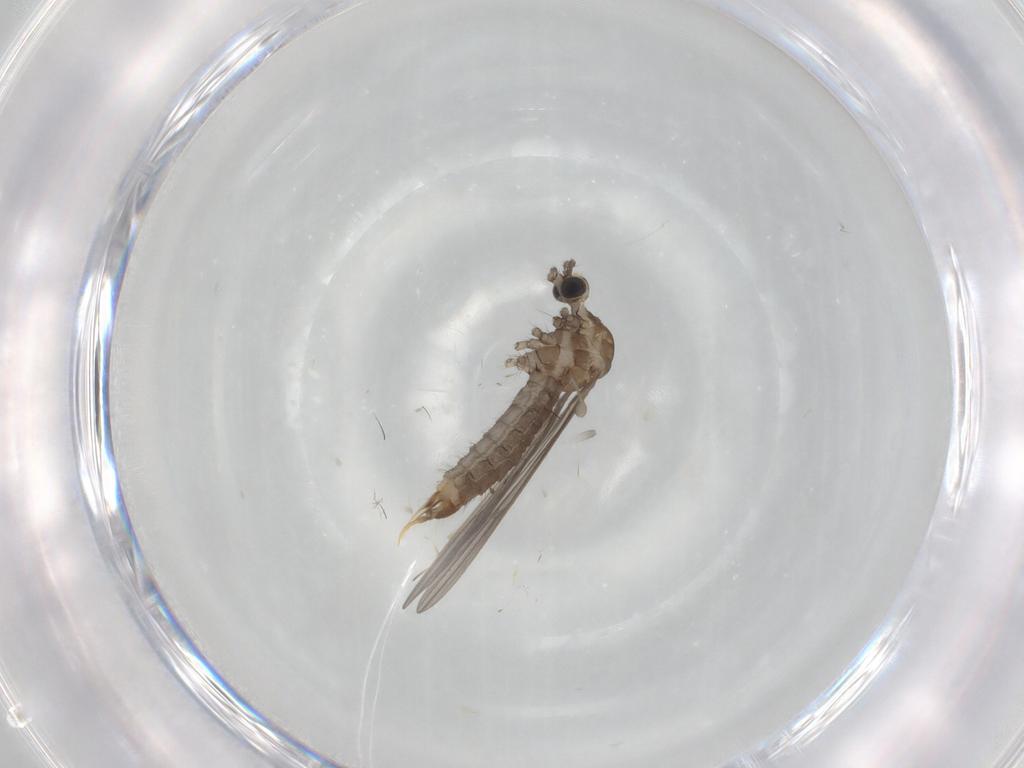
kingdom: Animalia
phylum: Arthropoda
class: Insecta
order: Diptera
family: Limoniidae
